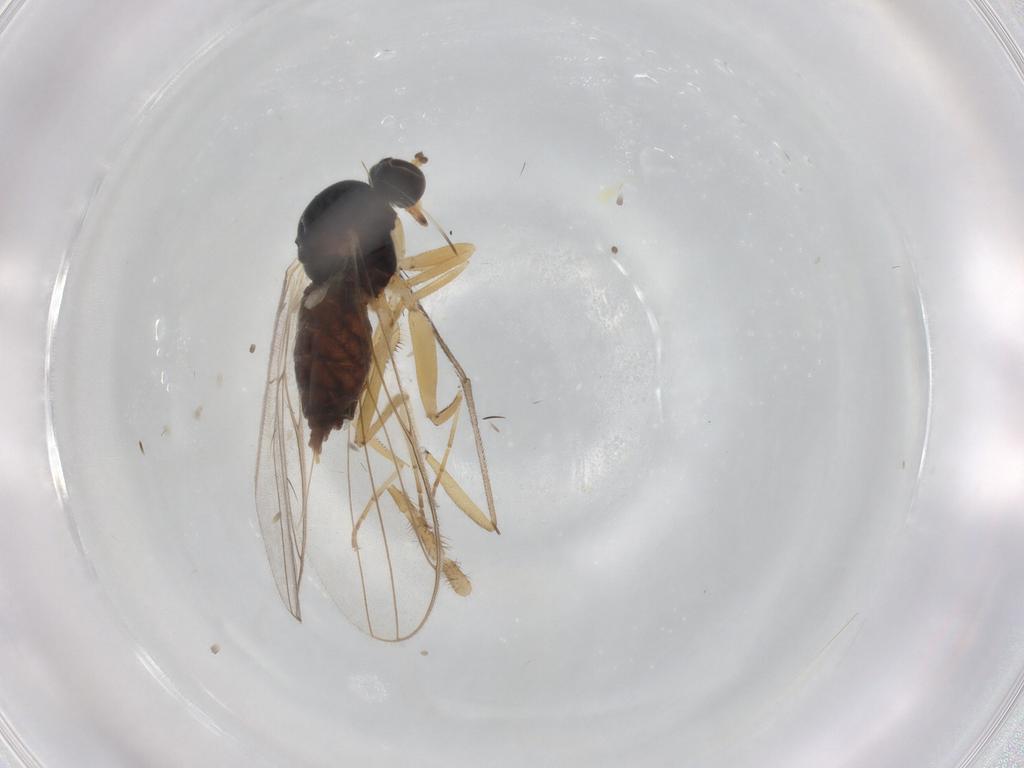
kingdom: Animalia
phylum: Arthropoda
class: Insecta
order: Diptera
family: Hybotidae
